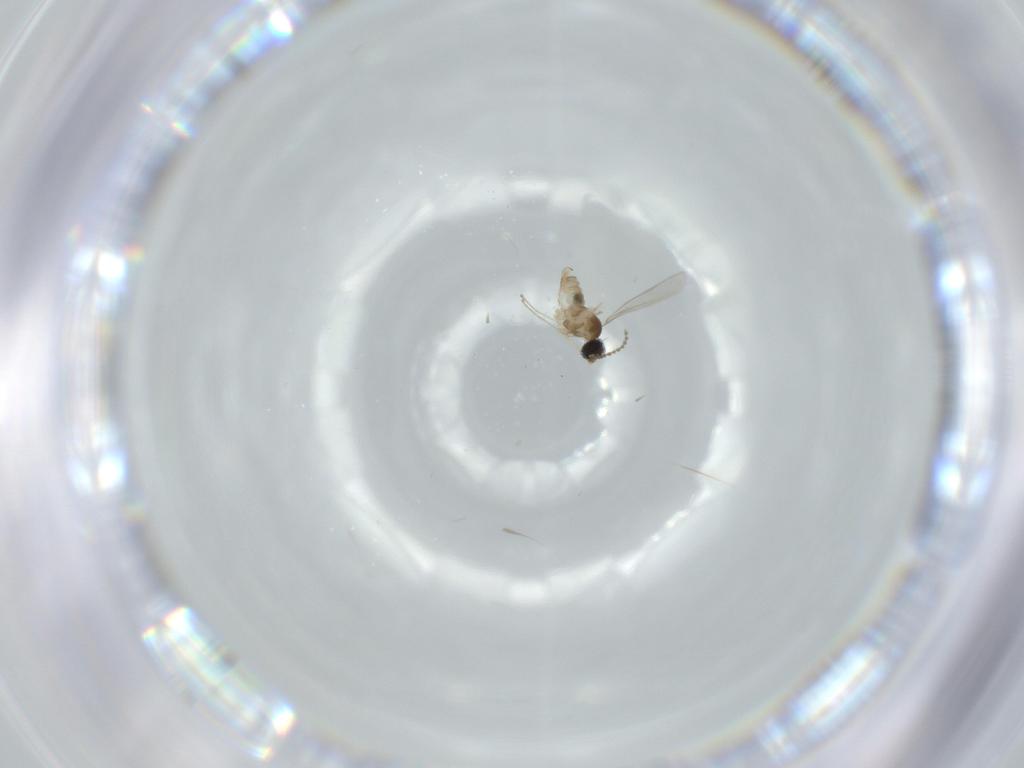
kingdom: Animalia
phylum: Arthropoda
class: Insecta
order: Diptera
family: Cecidomyiidae
